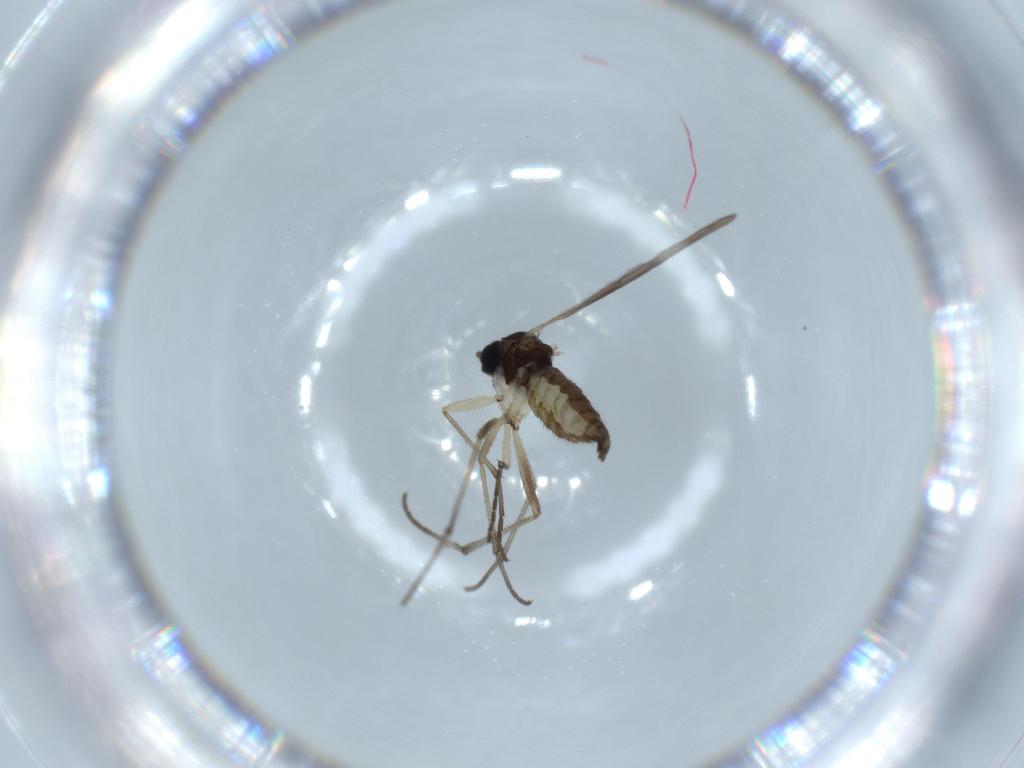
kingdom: Animalia
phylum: Arthropoda
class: Insecta
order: Diptera
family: Sciaridae
